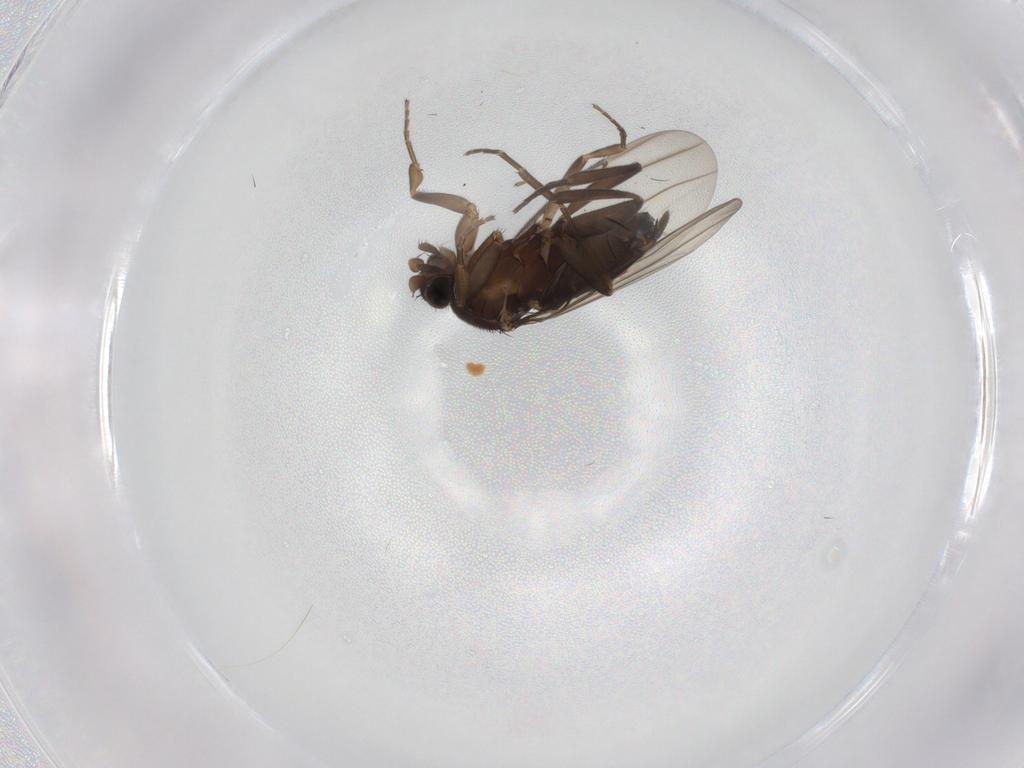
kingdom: Animalia
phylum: Arthropoda
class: Insecta
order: Diptera
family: Phoridae
